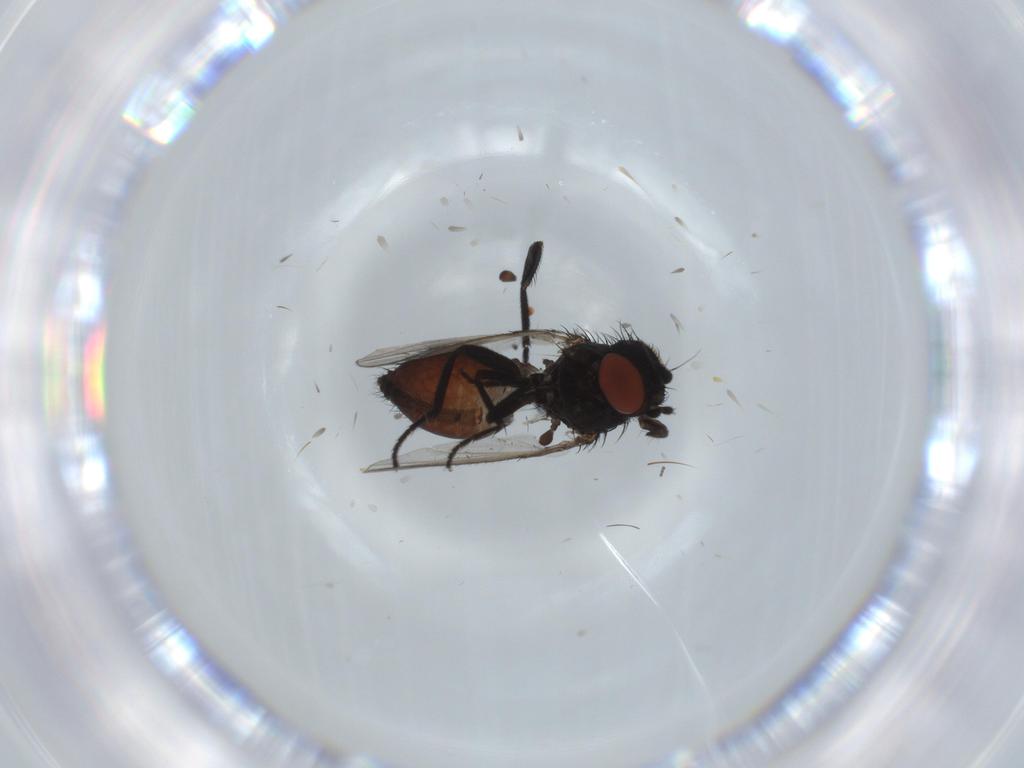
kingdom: Animalia
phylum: Arthropoda
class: Insecta
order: Diptera
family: Sciaridae
